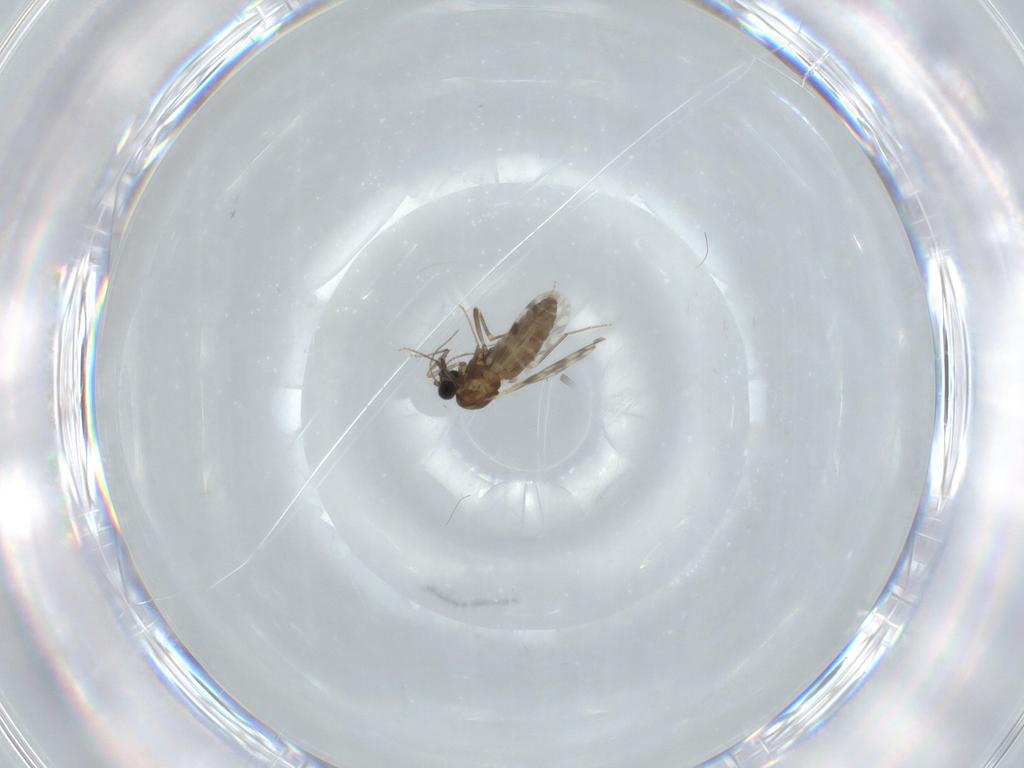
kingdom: Animalia
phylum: Arthropoda
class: Insecta
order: Diptera
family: Ceratopogonidae
